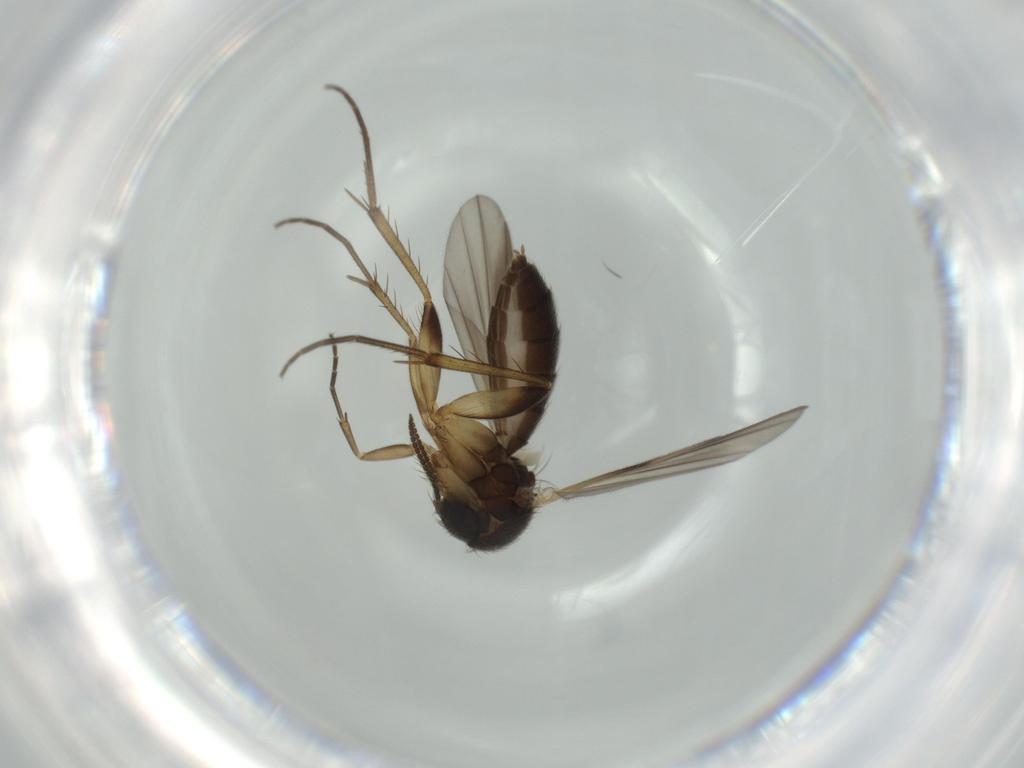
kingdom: Animalia
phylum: Arthropoda
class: Insecta
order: Diptera
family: Mycetophilidae
